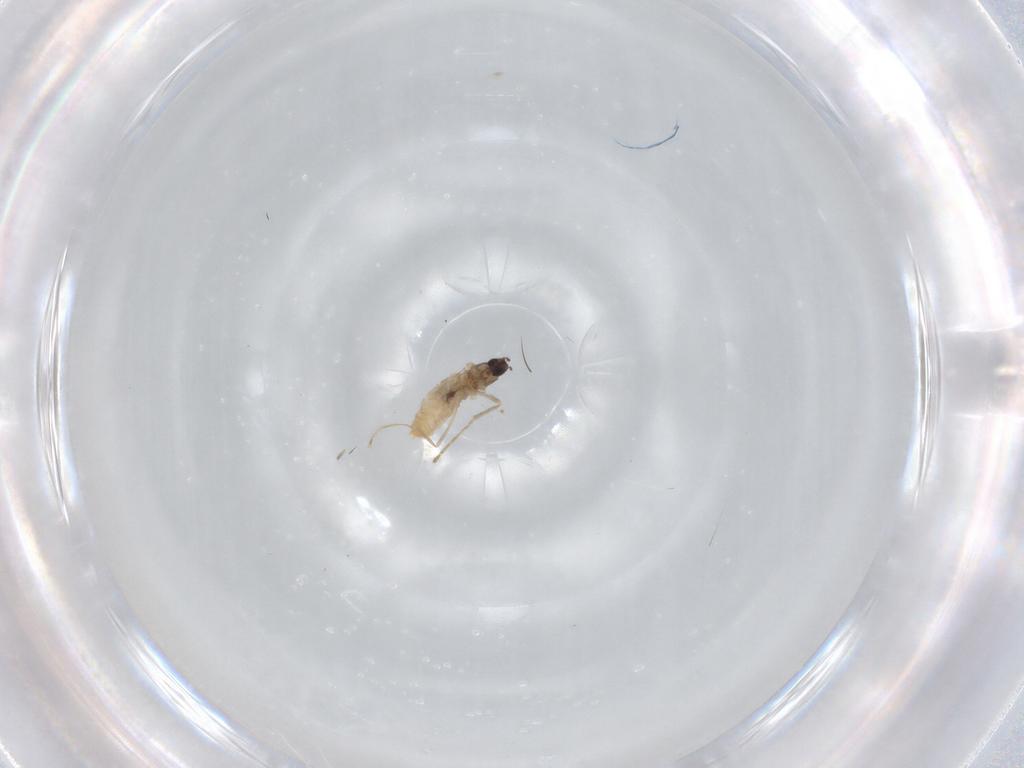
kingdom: Animalia
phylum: Arthropoda
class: Insecta
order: Diptera
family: Cecidomyiidae
